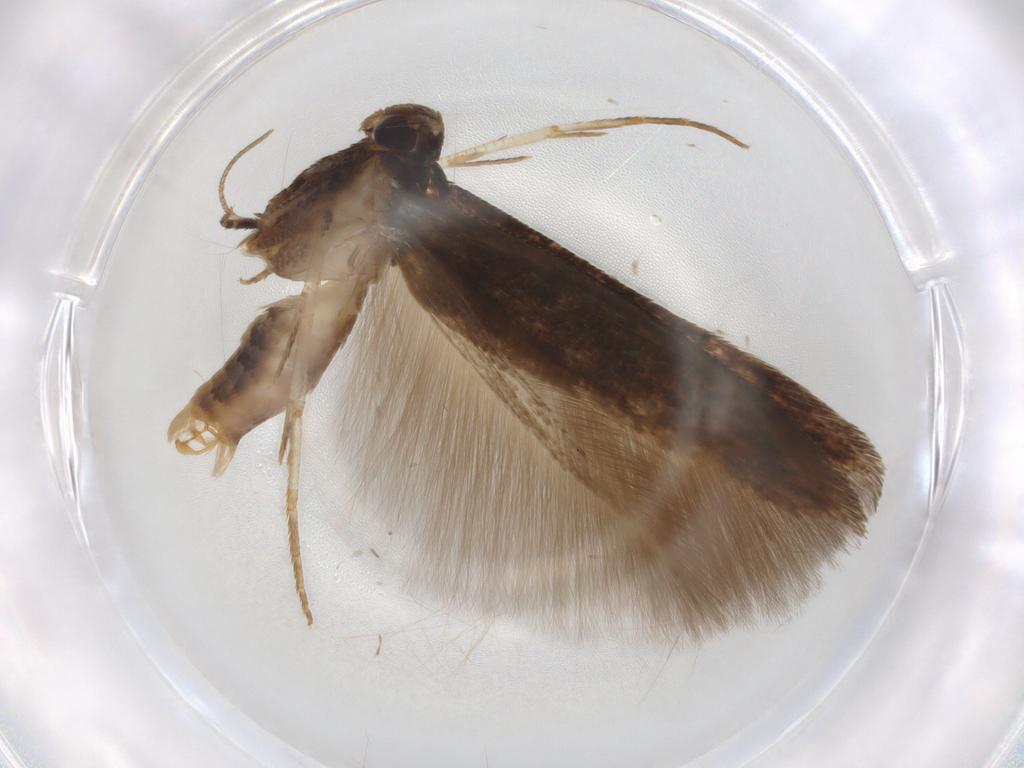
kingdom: Animalia
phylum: Arthropoda
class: Insecta
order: Lepidoptera
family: Cosmopterigidae
